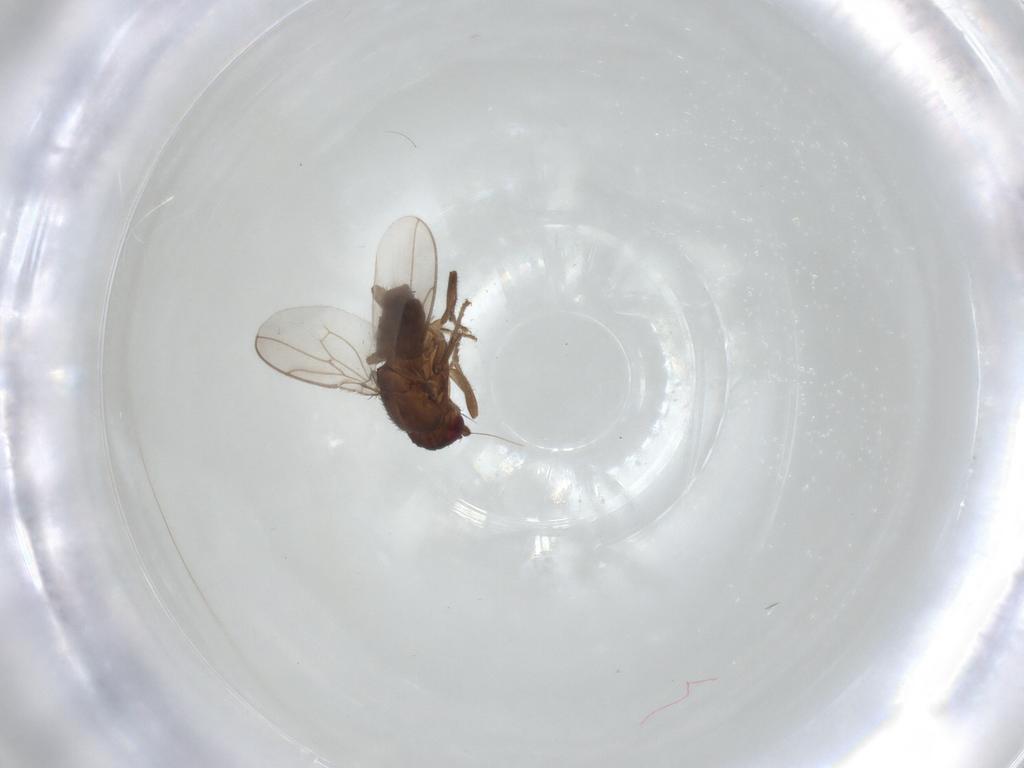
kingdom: Animalia
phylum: Arthropoda
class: Insecta
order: Diptera
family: Sphaeroceridae
